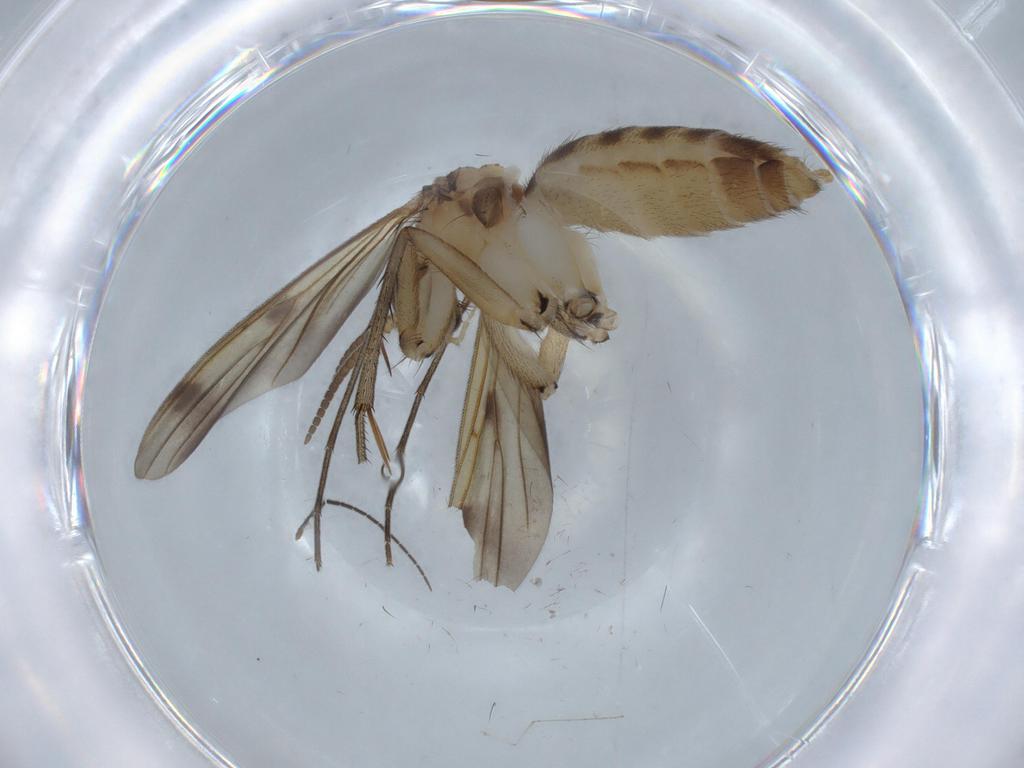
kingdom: Animalia
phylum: Arthropoda
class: Insecta
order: Diptera
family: Mycetophilidae
